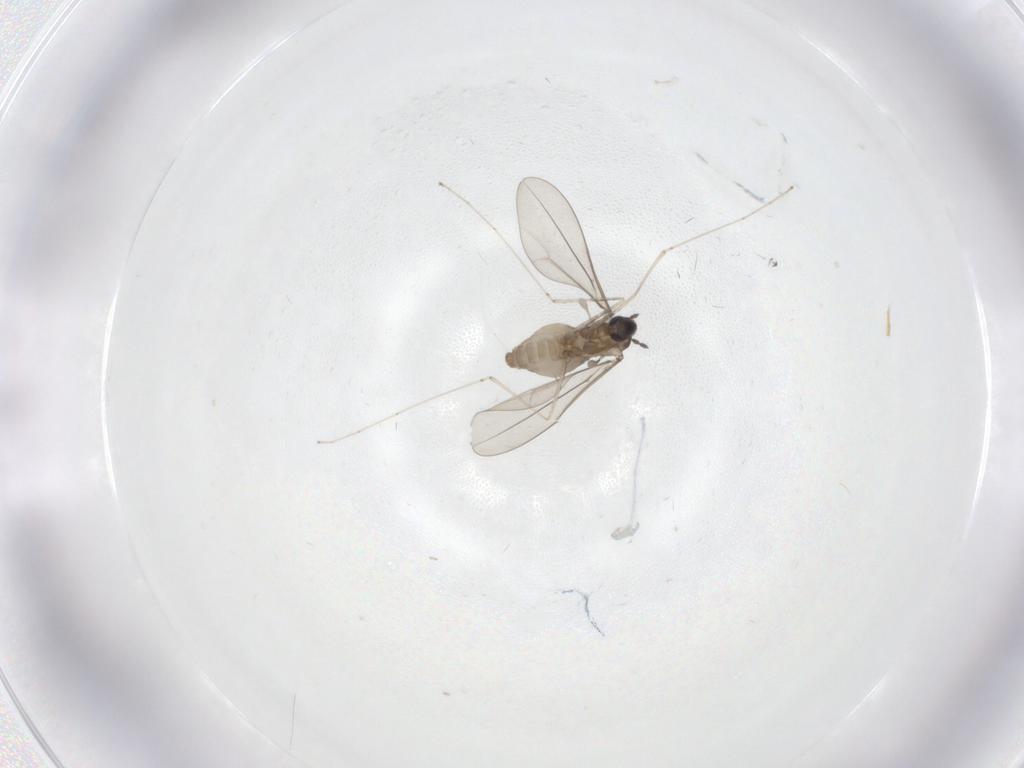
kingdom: Animalia
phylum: Arthropoda
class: Insecta
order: Diptera
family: Cecidomyiidae
